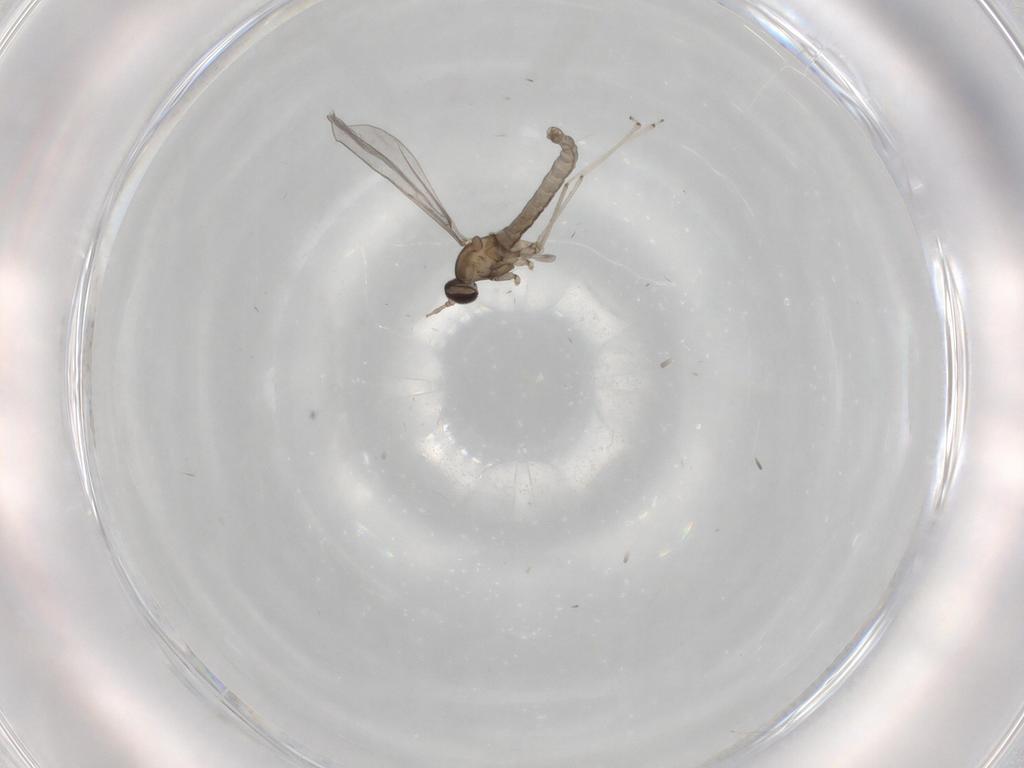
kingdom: Animalia
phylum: Arthropoda
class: Insecta
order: Diptera
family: Cecidomyiidae
